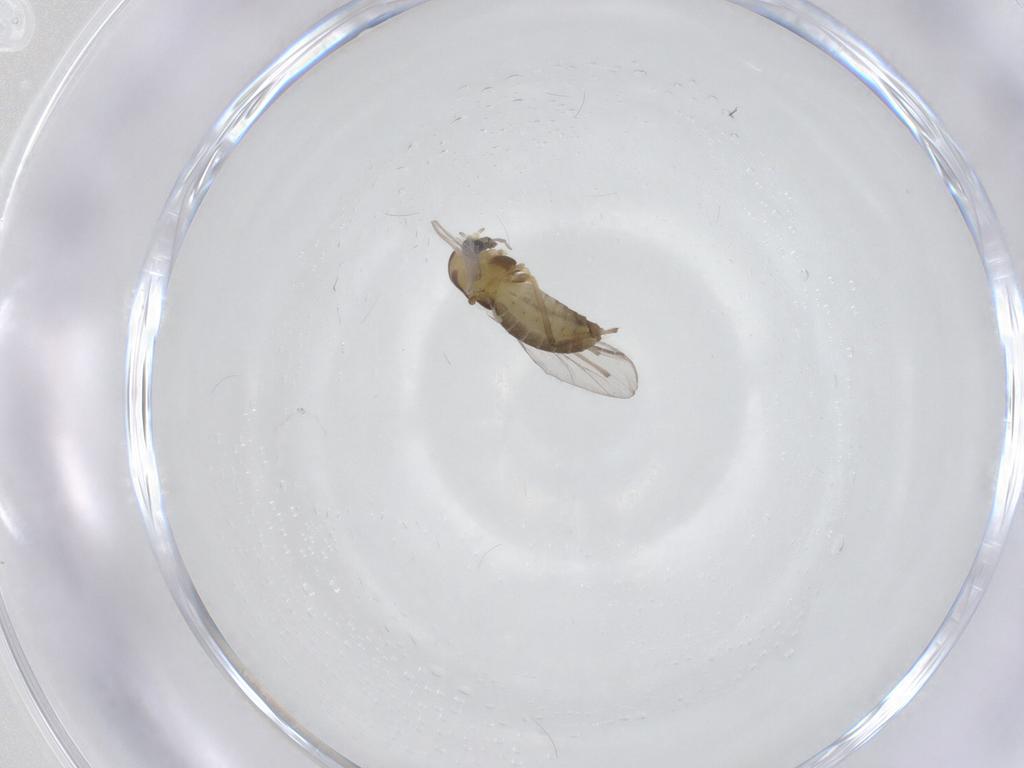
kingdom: Animalia
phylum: Arthropoda
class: Insecta
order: Diptera
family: Chironomidae
